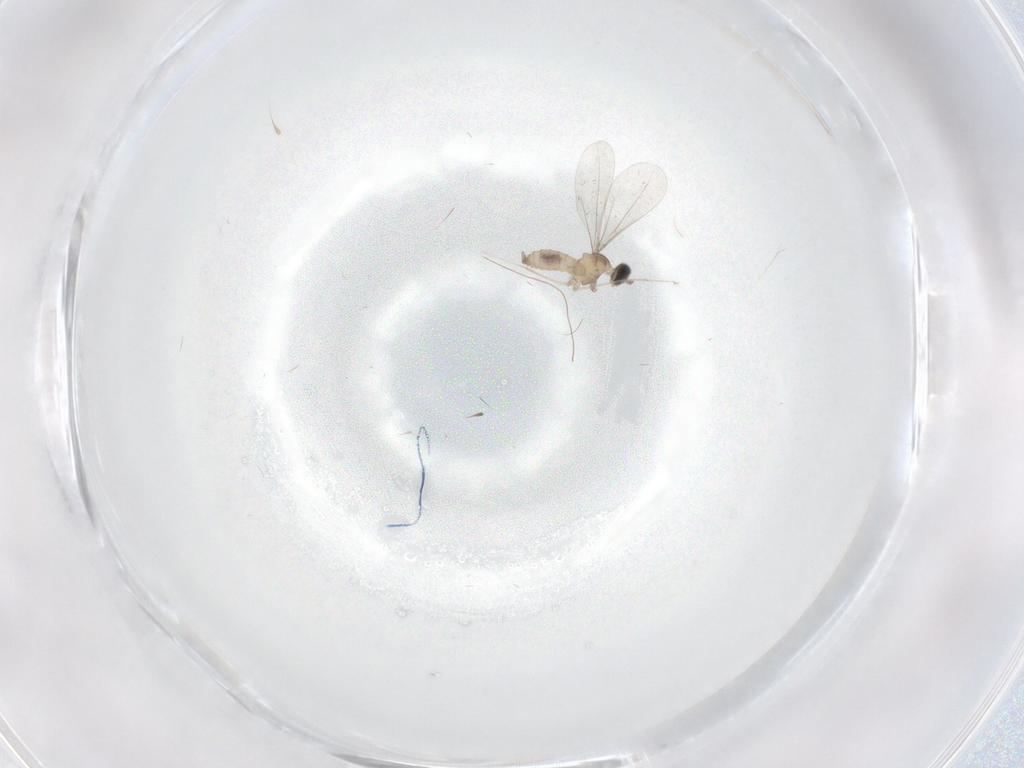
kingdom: Animalia
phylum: Arthropoda
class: Insecta
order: Diptera
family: Cecidomyiidae
